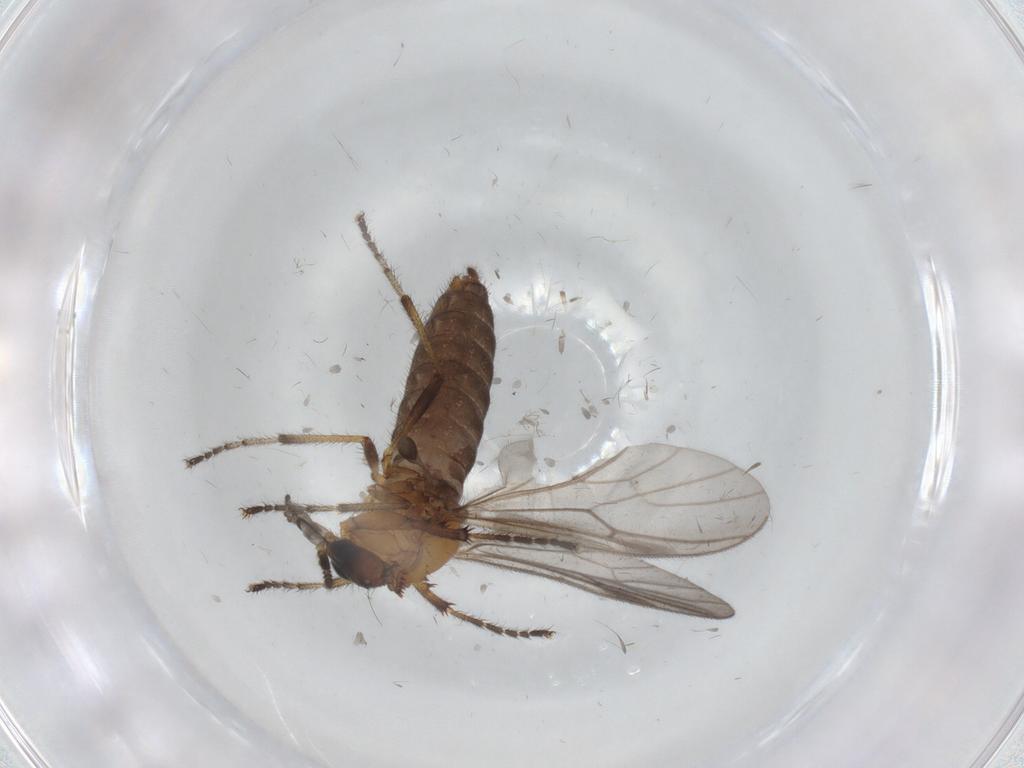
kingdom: Animalia
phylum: Arthropoda
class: Insecta
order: Diptera
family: Bibionidae
